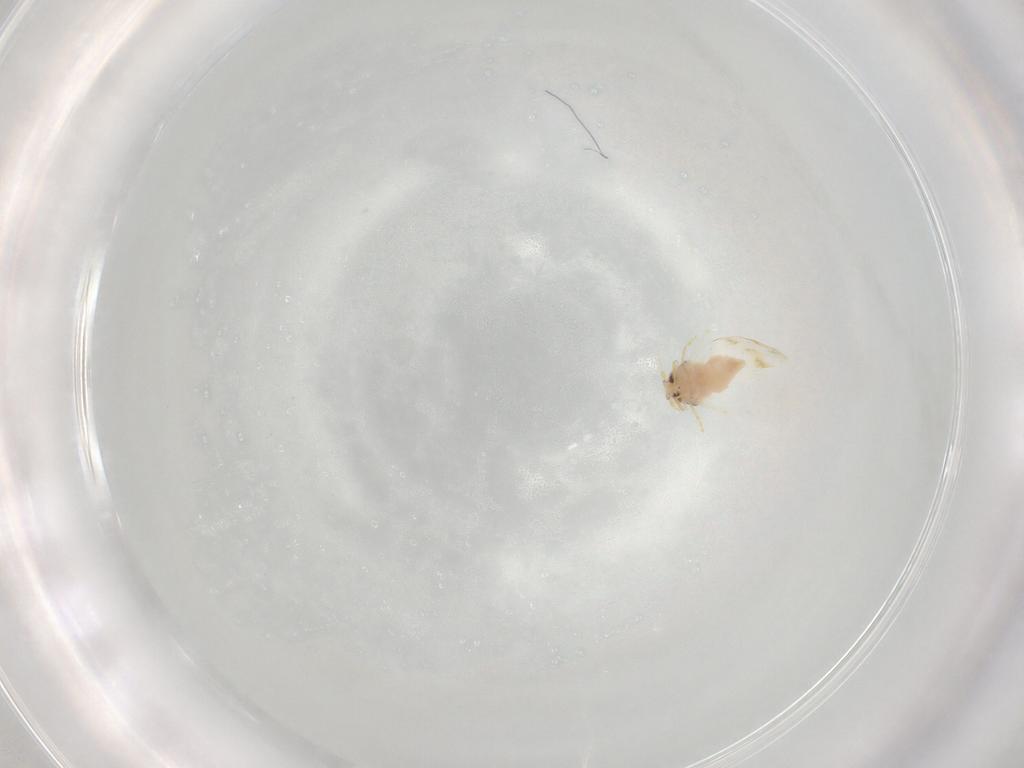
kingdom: Animalia
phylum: Arthropoda
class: Insecta
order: Hemiptera
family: Aleyrodidae
